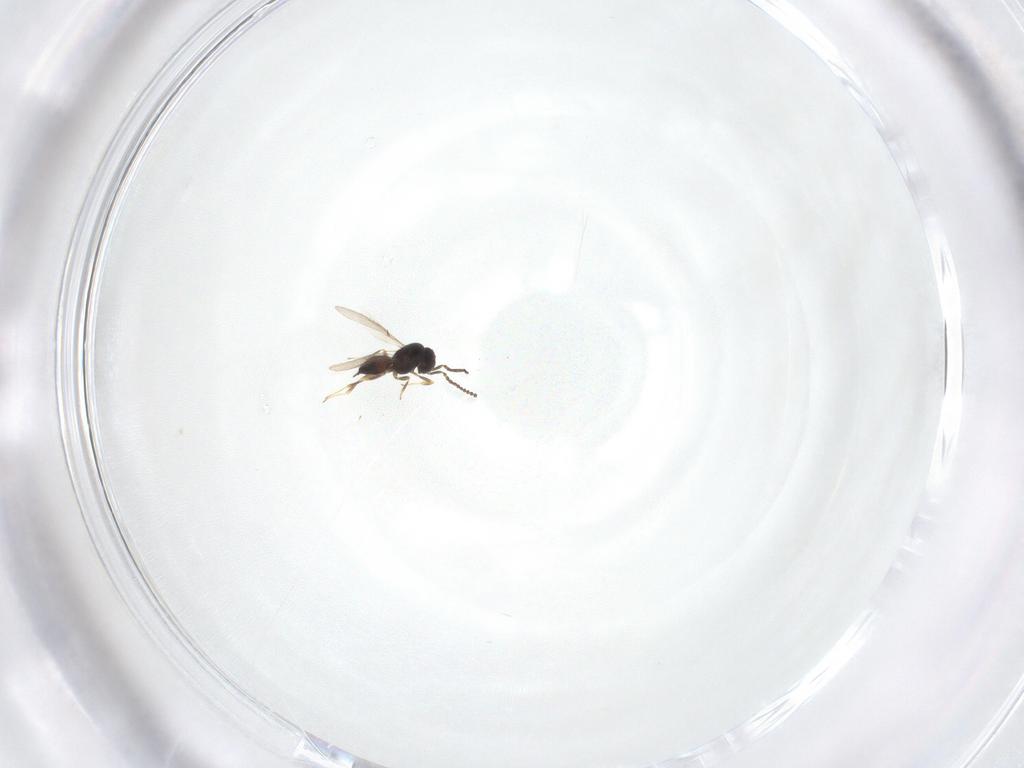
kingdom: Animalia
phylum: Arthropoda
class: Insecta
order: Hymenoptera
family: Scelionidae
